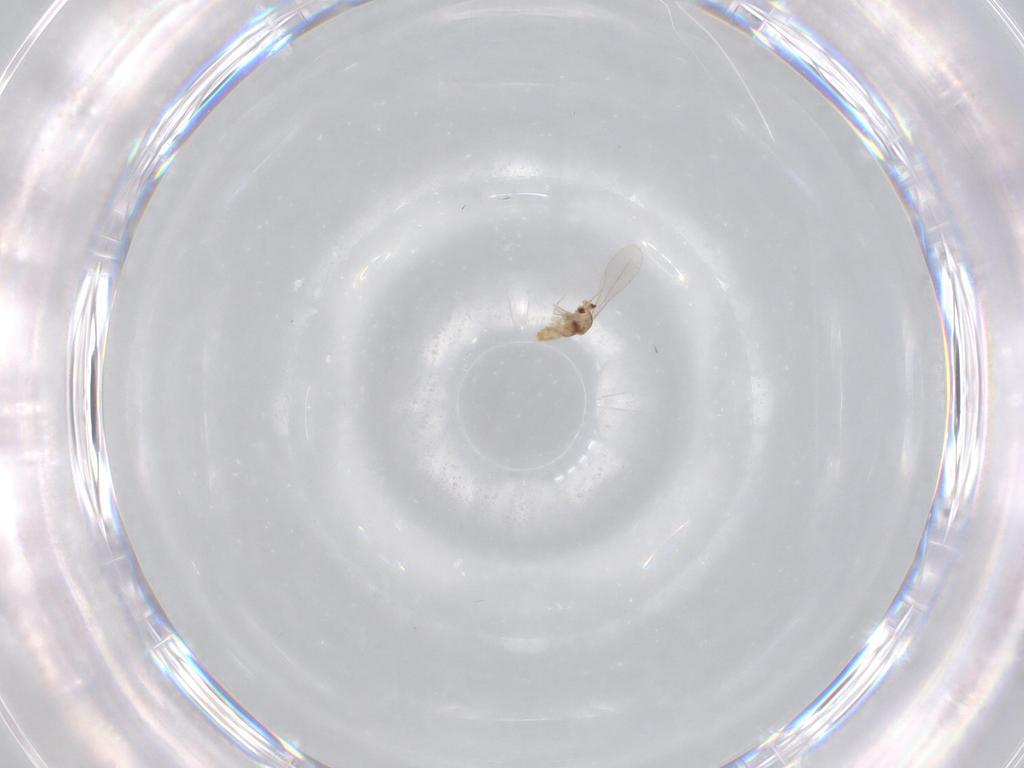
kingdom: Animalia
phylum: Arthropoda
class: Insecta
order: Diptera
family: Cecidomyiidae
